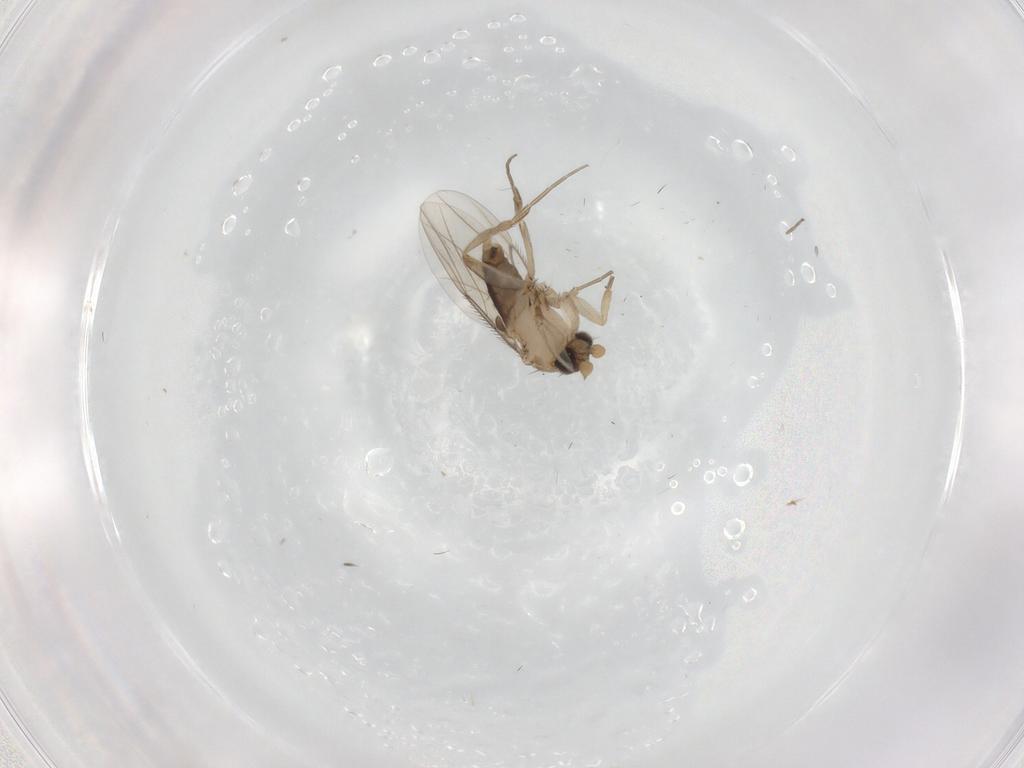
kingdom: Animalia
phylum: Arthropoda
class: Insecta
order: Diptera
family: Phoridae
